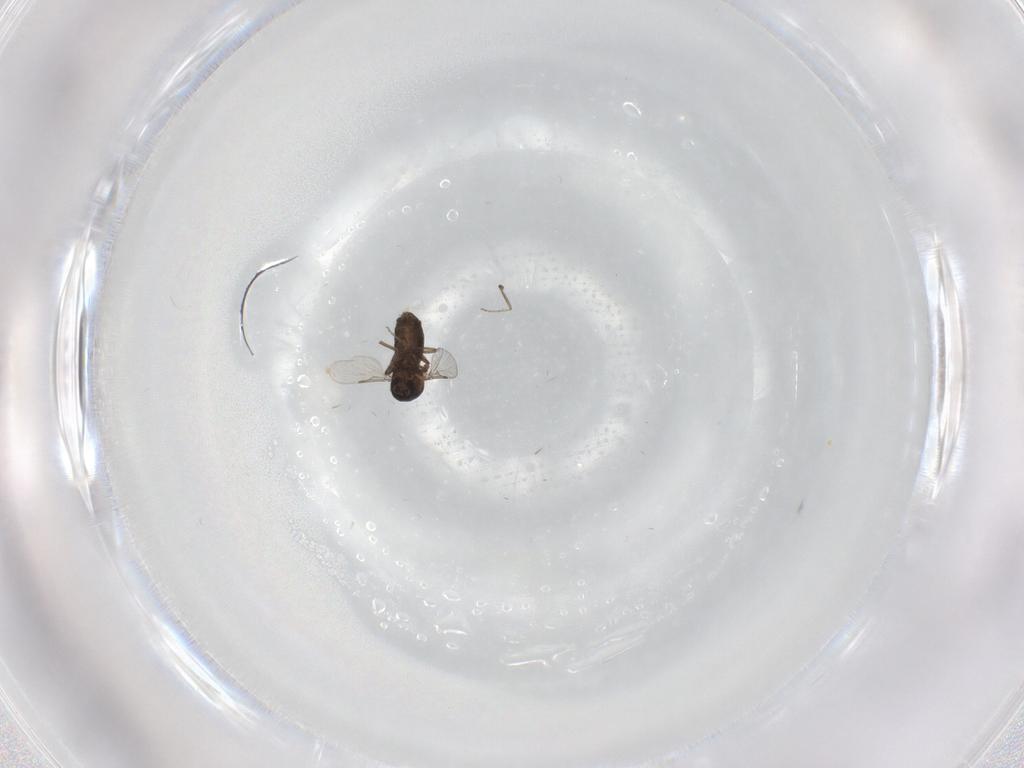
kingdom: Animalia
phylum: Arthropoda
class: Insecta
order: Diptera
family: Ceratopogonidae
